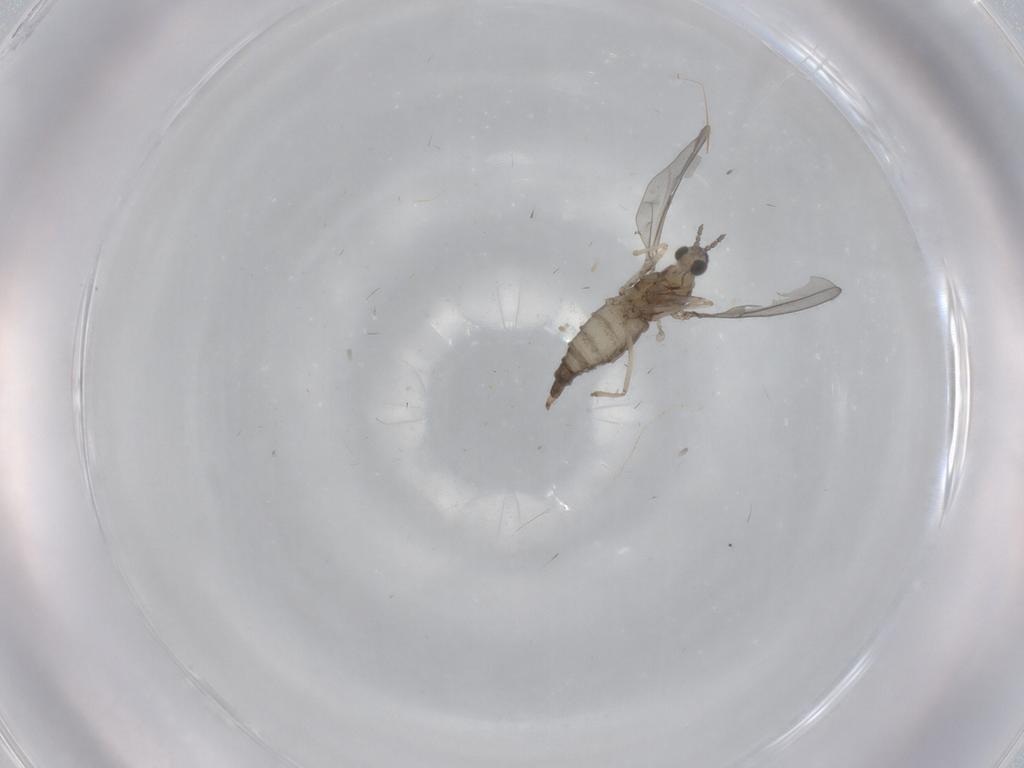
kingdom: Animalia
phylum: Arthropoda
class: Insecta
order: Diptera
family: Cecidomyiidae
